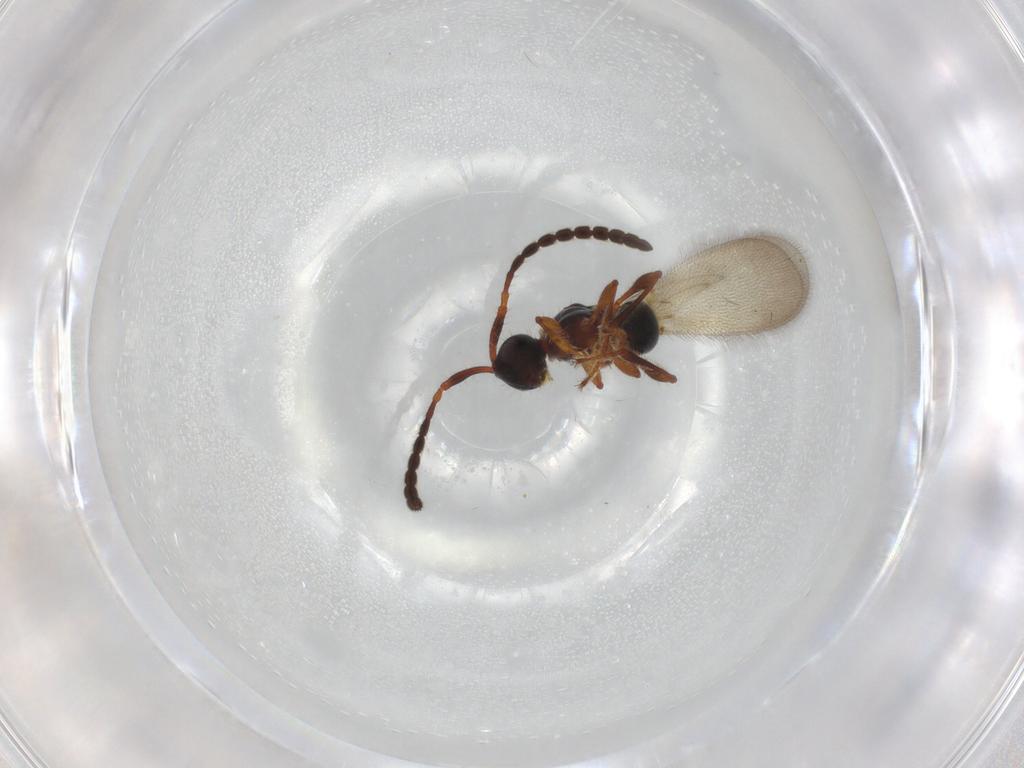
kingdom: Animalia
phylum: Arthropoda
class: Insecta
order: Hymenoptera
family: Diapriidae
